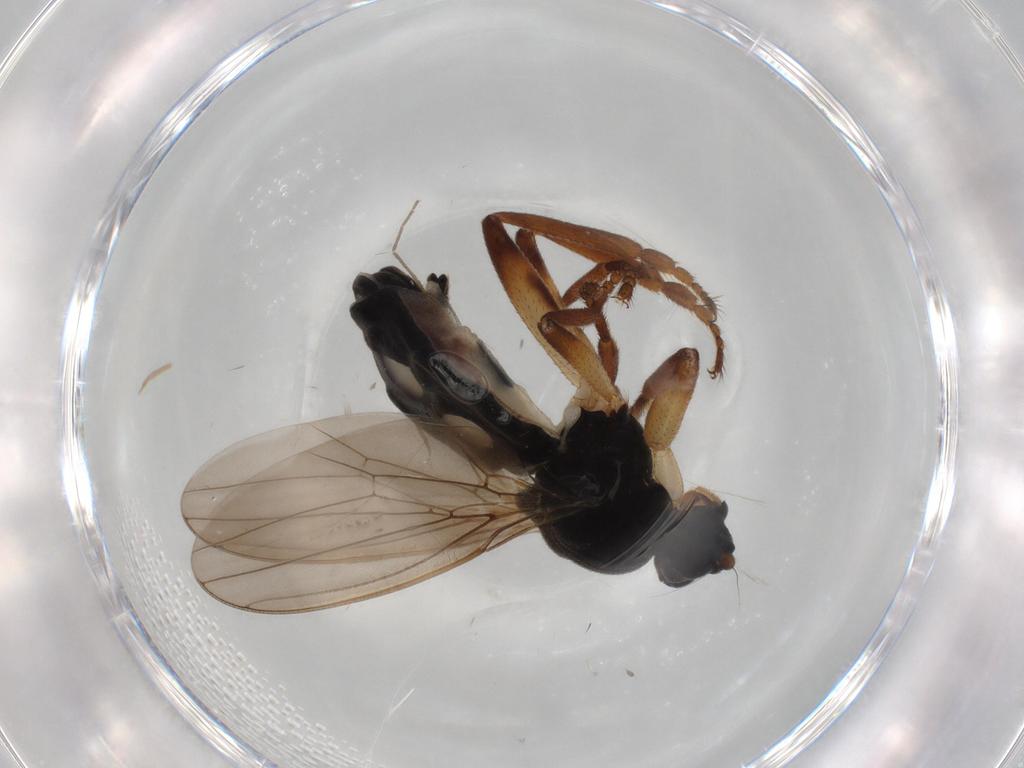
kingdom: Animalia
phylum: Arthropoda
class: Insecta
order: Diptera
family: Sphaeroceridae
